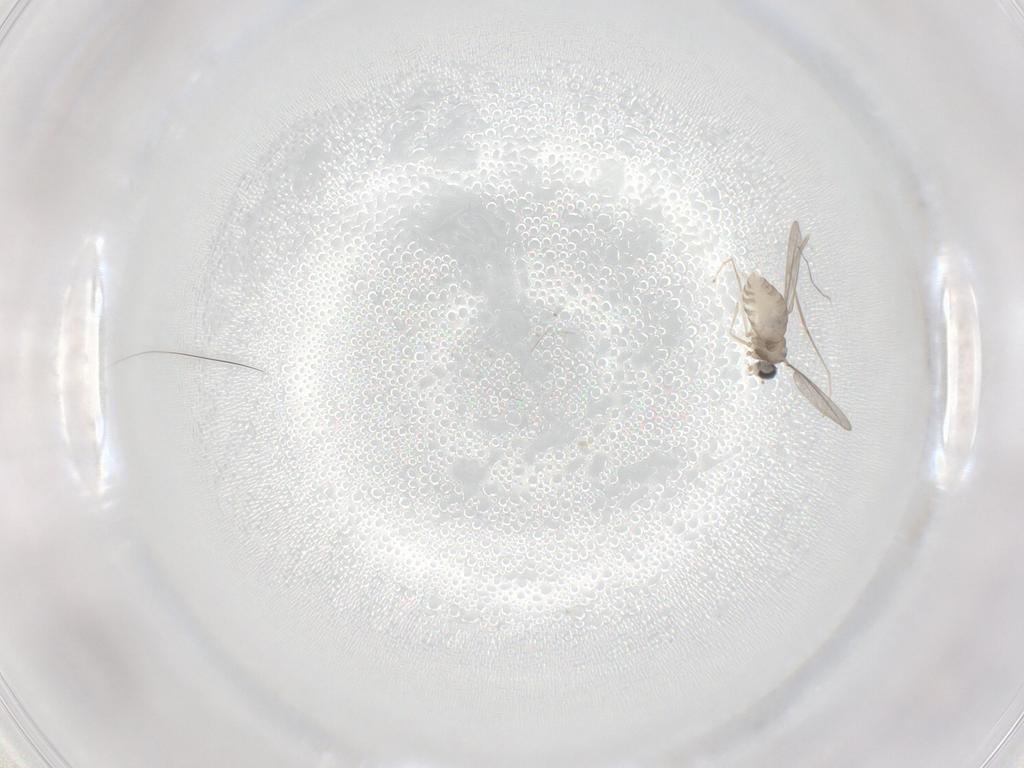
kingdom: Animalia
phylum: Arthropoda
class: Insecta
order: Diptera
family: Cecidomyiidae
